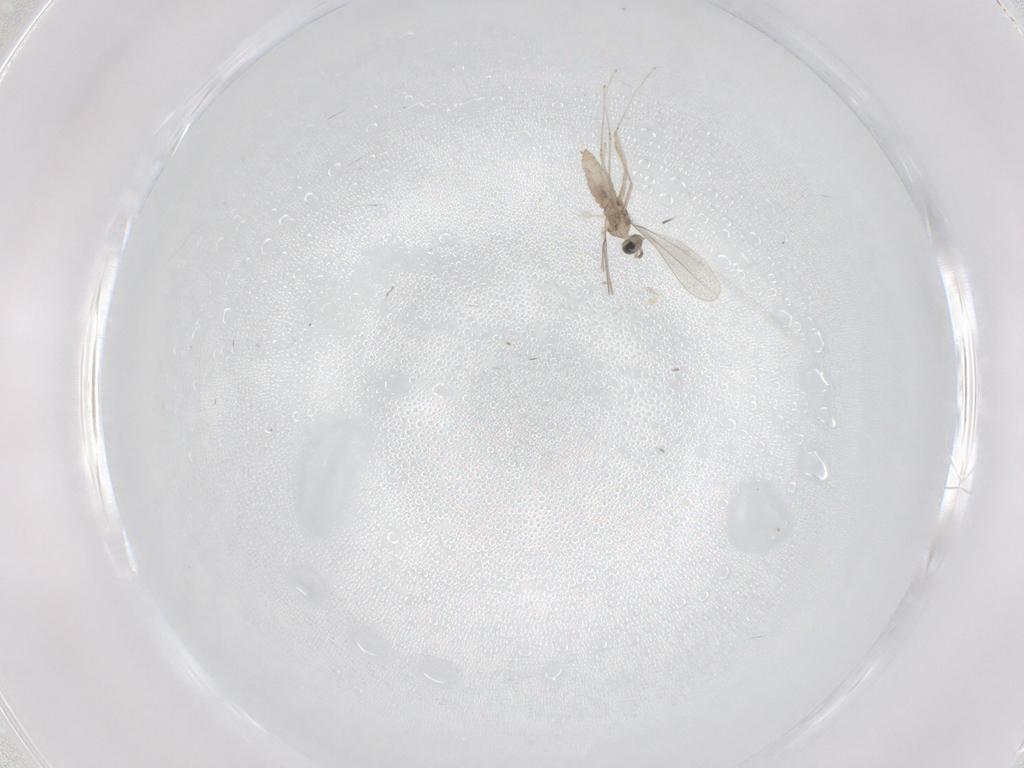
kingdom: Animalia
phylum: Arthropoda
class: Insecta
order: Diptera
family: Cecidomyiidae
